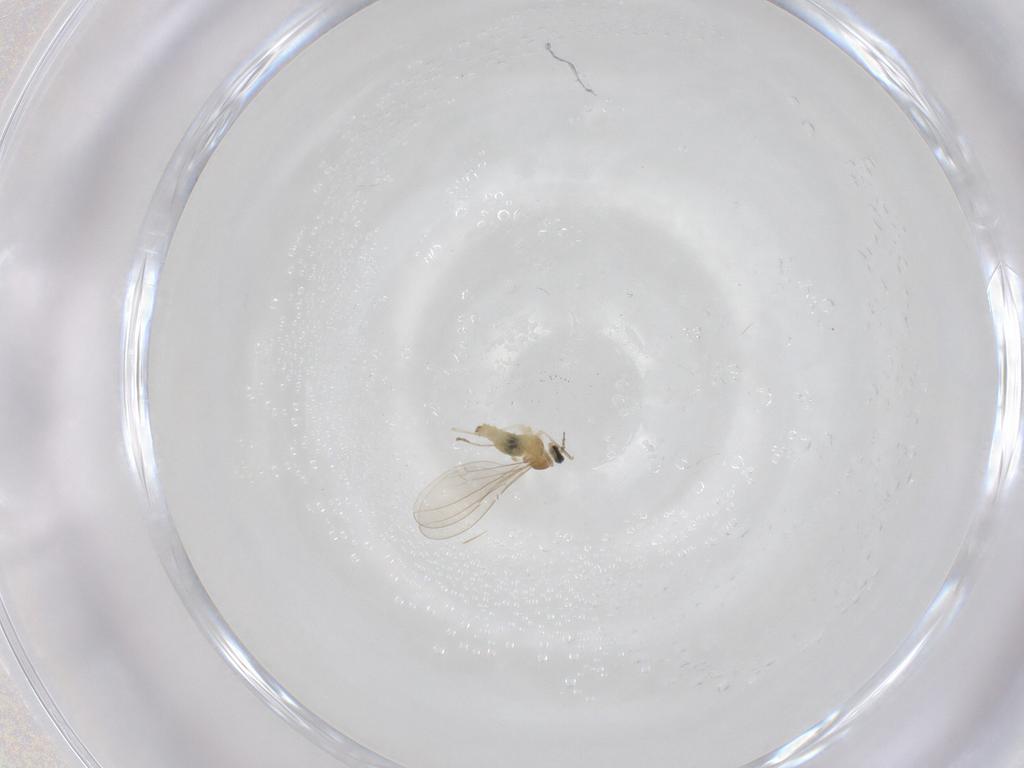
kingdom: Animalia
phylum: Arthropoda
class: Insecta
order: Diptera
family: Cecidomyiidae
